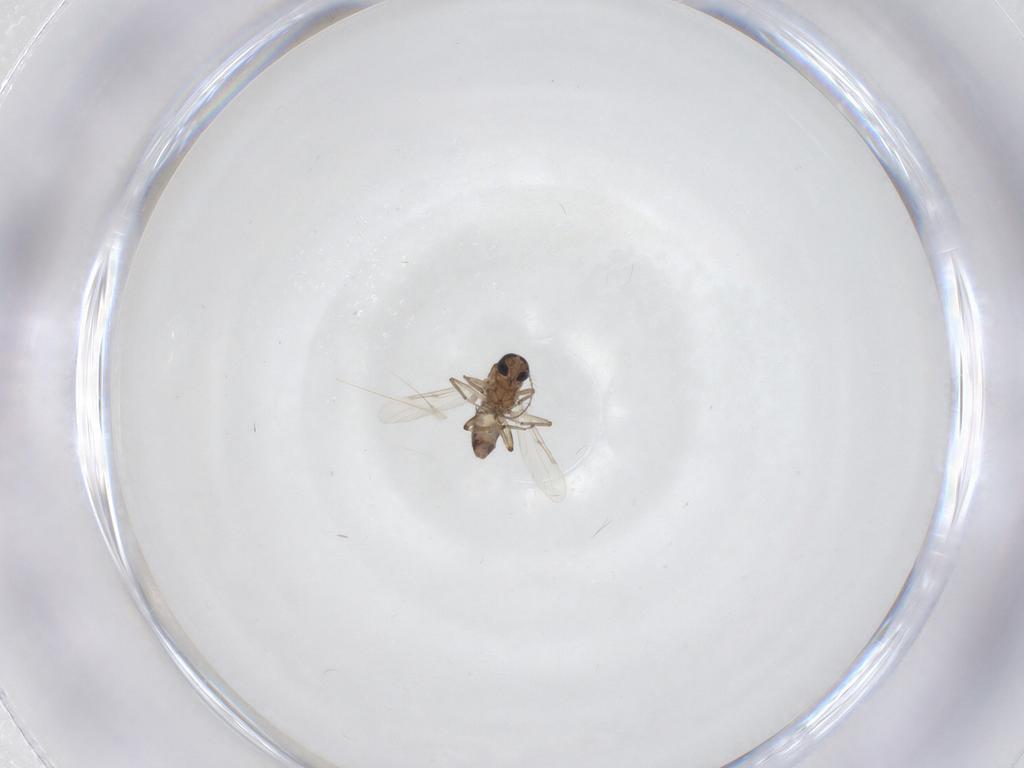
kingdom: Animalia
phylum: Arthropoda
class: Insecta
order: Diptera
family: Ceratopogonidae
